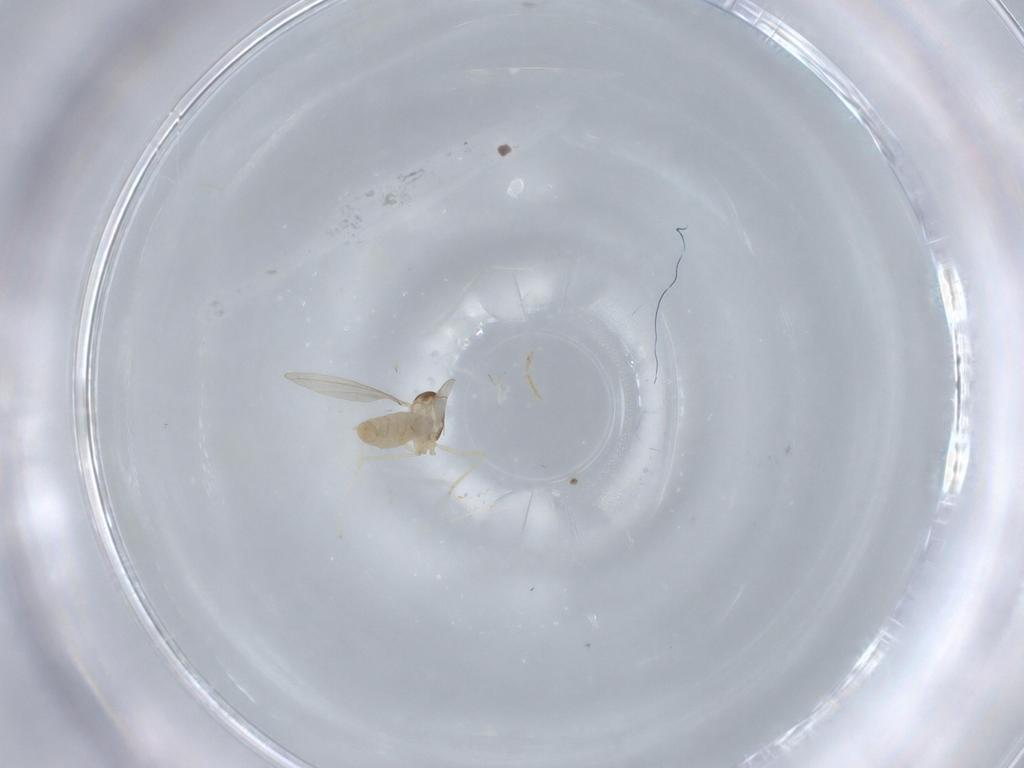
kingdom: Animalia
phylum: Arthropoda
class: Insecta
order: Diptera
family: Cecidomyiidae
